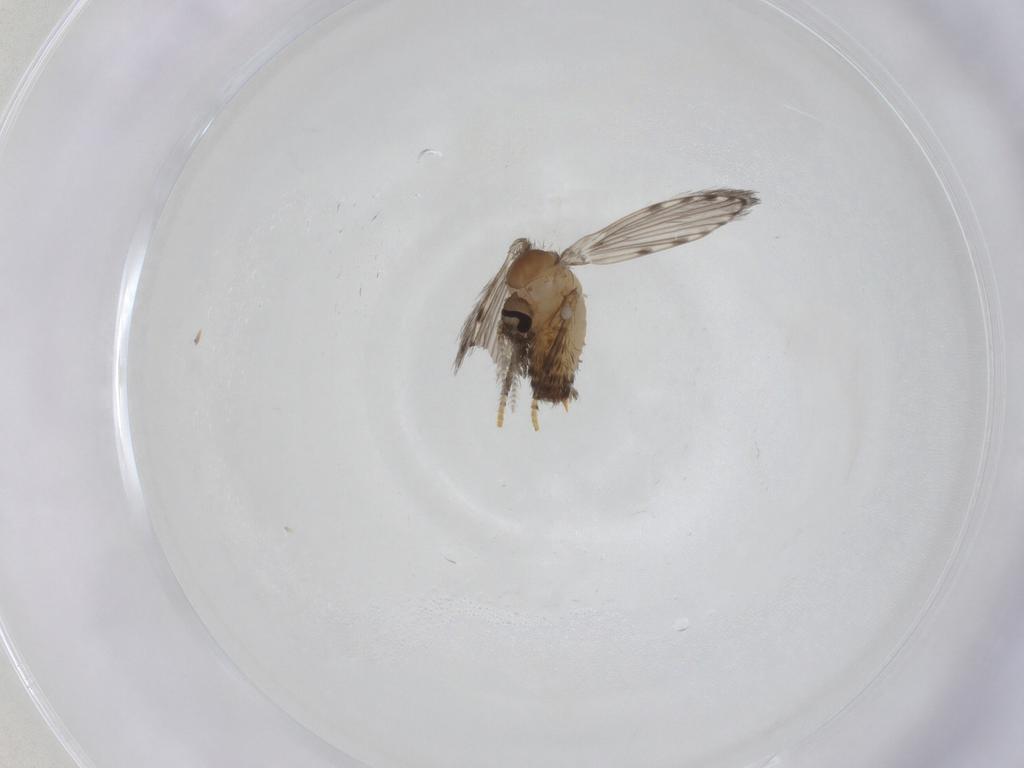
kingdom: Animalia
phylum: Arthropoda
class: Insecta
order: Diptera
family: Psychodidae
